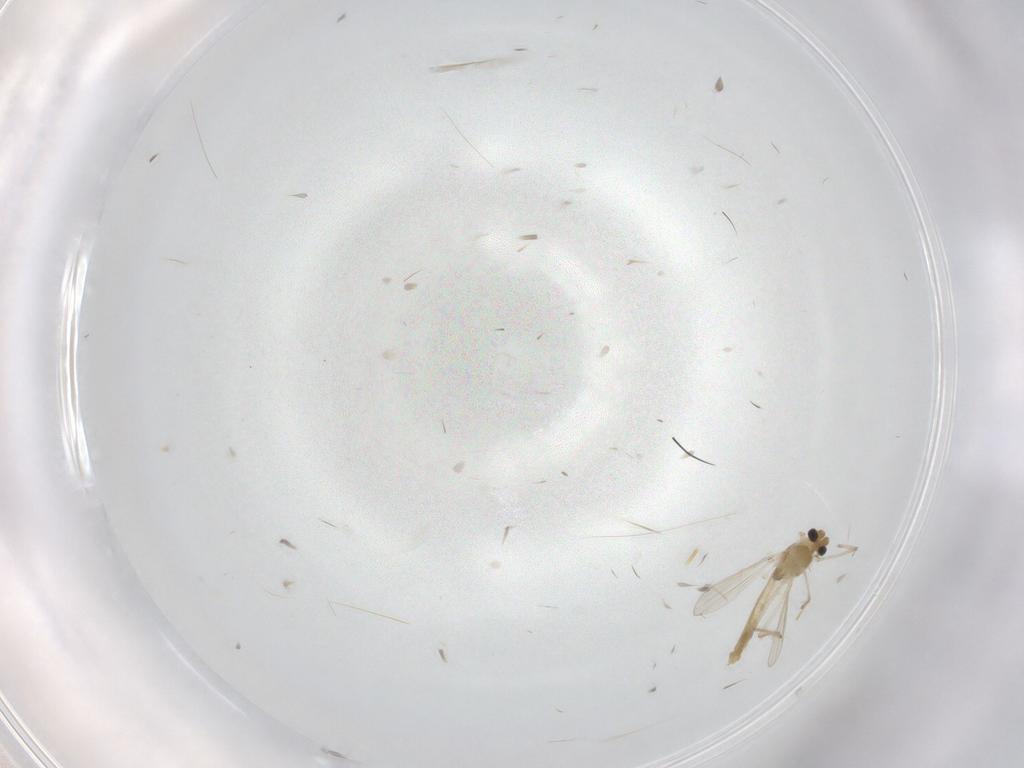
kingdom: Animalia
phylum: Arthropoda
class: Insecta
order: Diptera
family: Chironomidae
